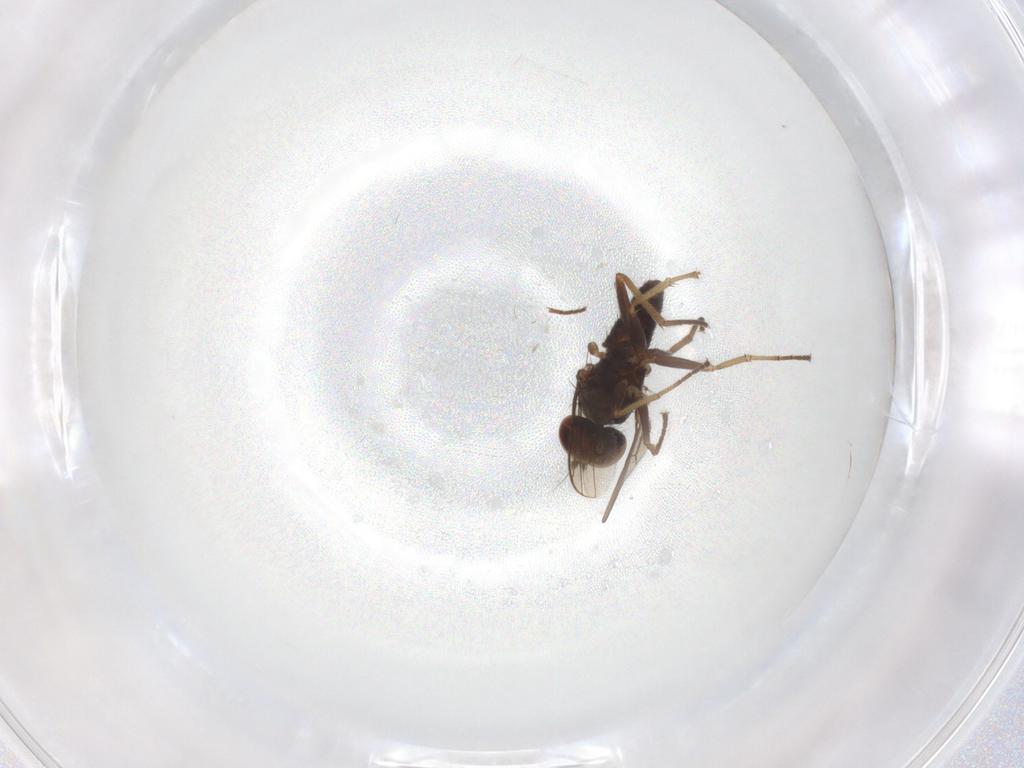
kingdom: Animalia
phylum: Arthropoda
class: Insecta
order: Diptera
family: Dolichopodidae
